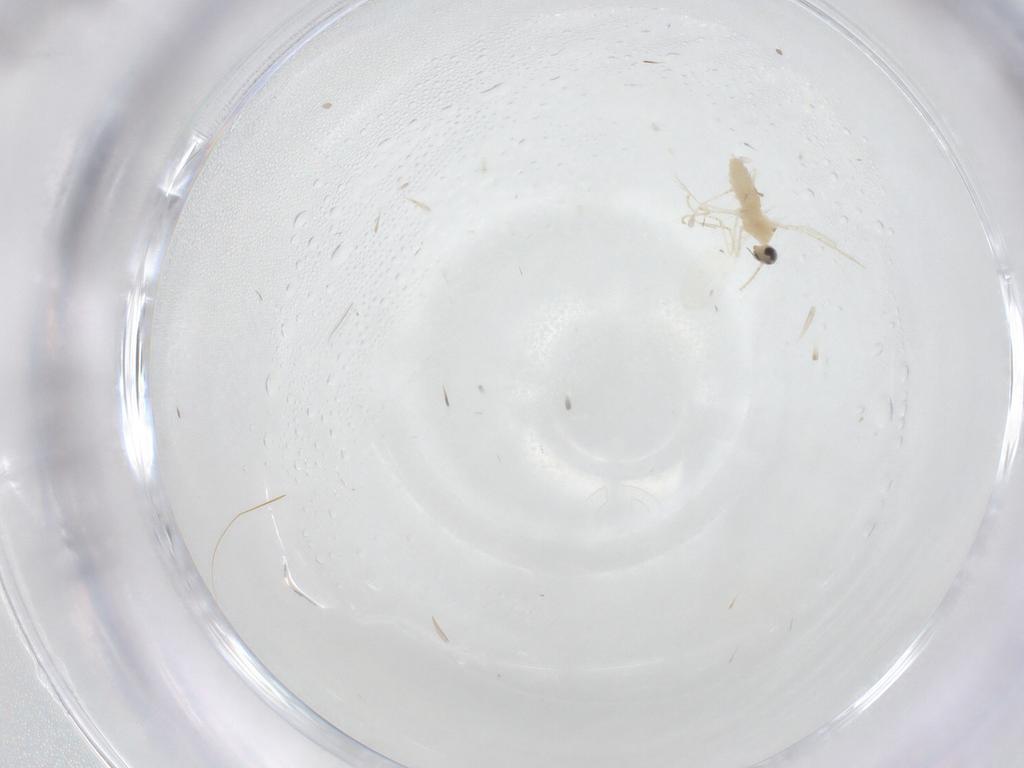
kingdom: Animalia
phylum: Arthropoda
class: Insecta
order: Diptera
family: Cecidomyiidae
